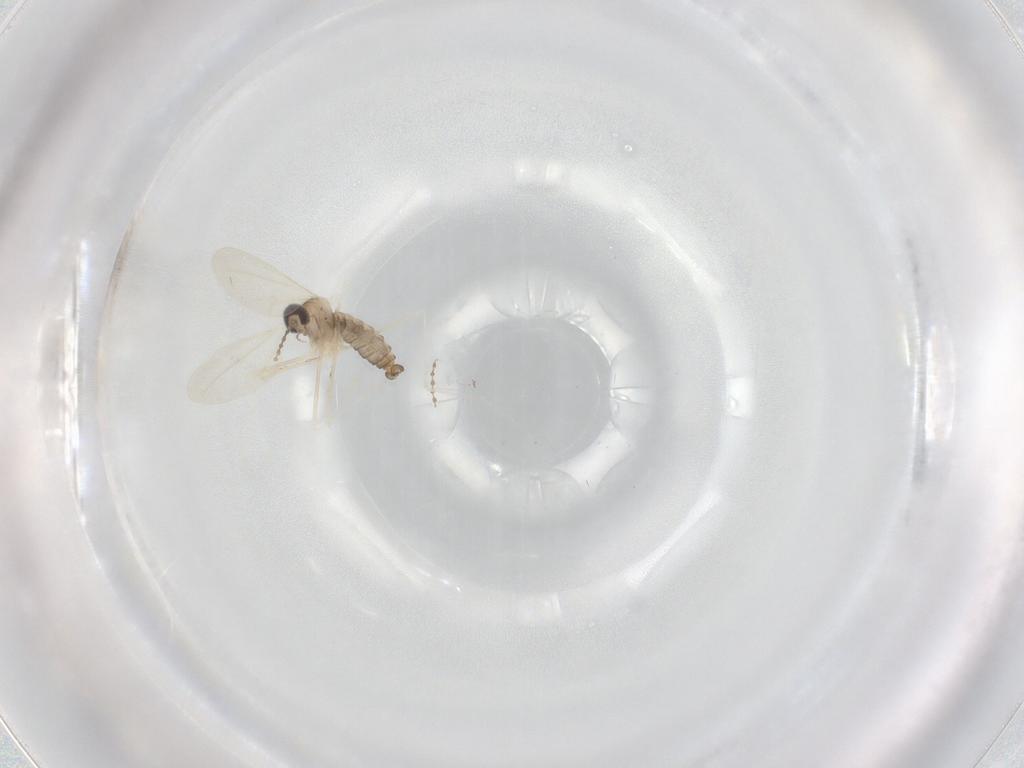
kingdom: Animalia
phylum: Arthropoda
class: Insecta
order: Diptera
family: Cecidomyiidae
